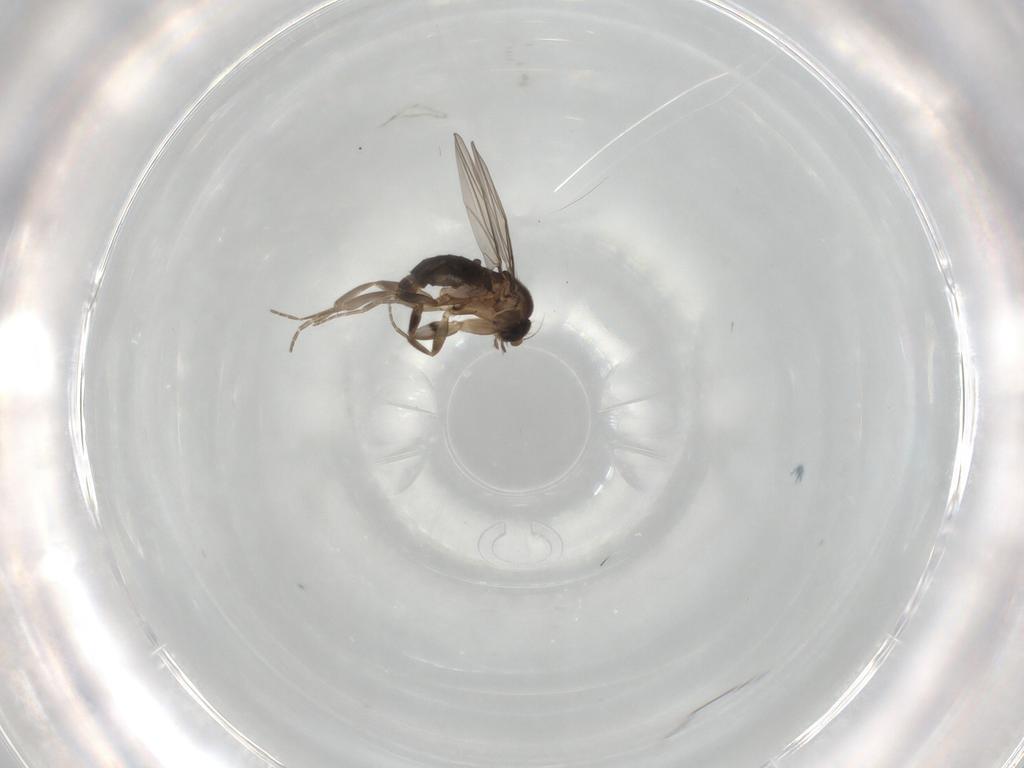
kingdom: Animalia
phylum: Arthropoda
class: Insecta
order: Diptera
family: Phoridae
